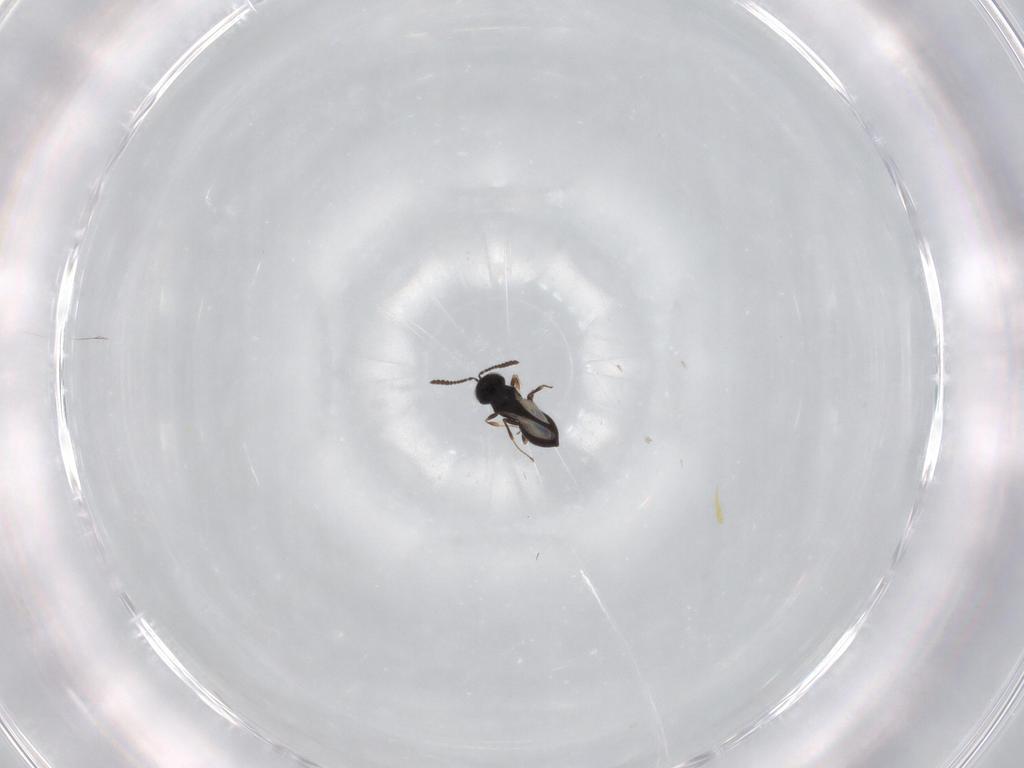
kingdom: Animalia
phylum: Arthropoda
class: Insecta
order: Hymenoptera
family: Scelionidae
